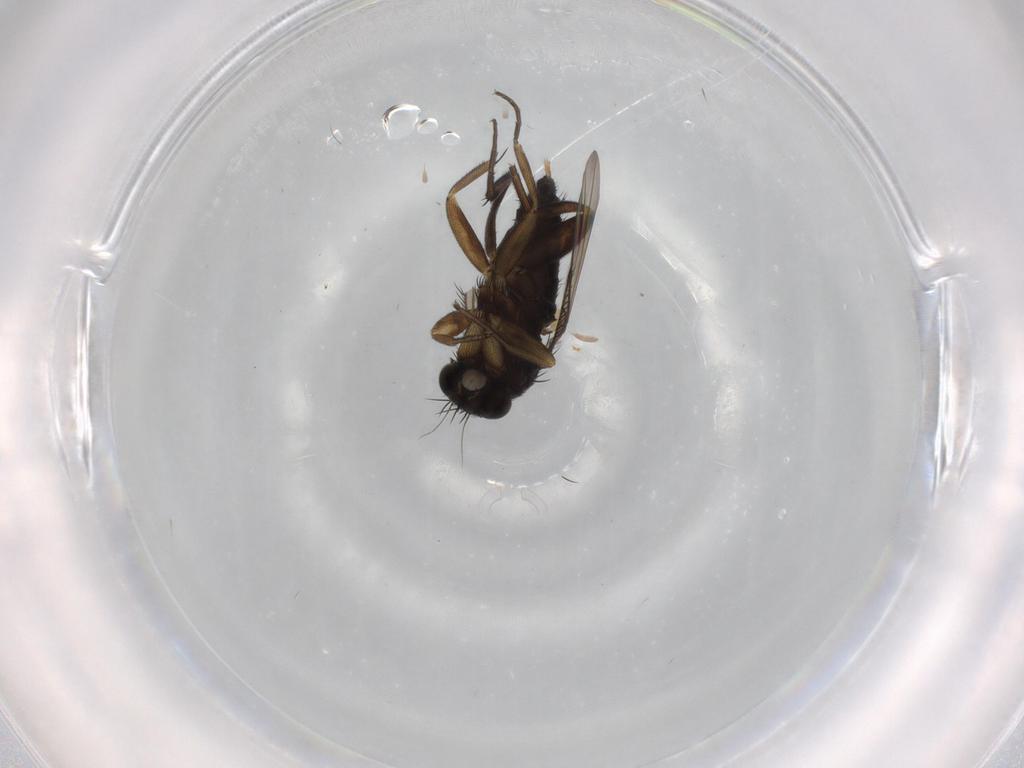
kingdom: Animalia
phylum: Arthropoda
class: Insecta
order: Diptera
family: Phoridae
